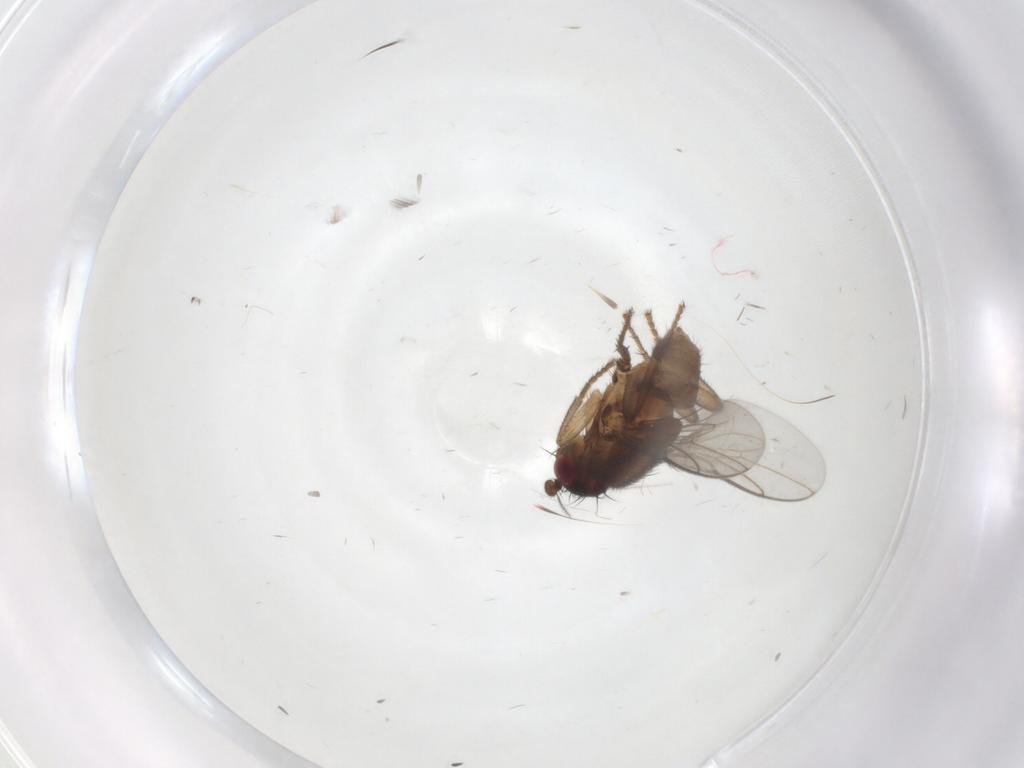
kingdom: Animalia
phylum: Arthropoda
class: Insecta
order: Diptera
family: Sphaeroceridae
